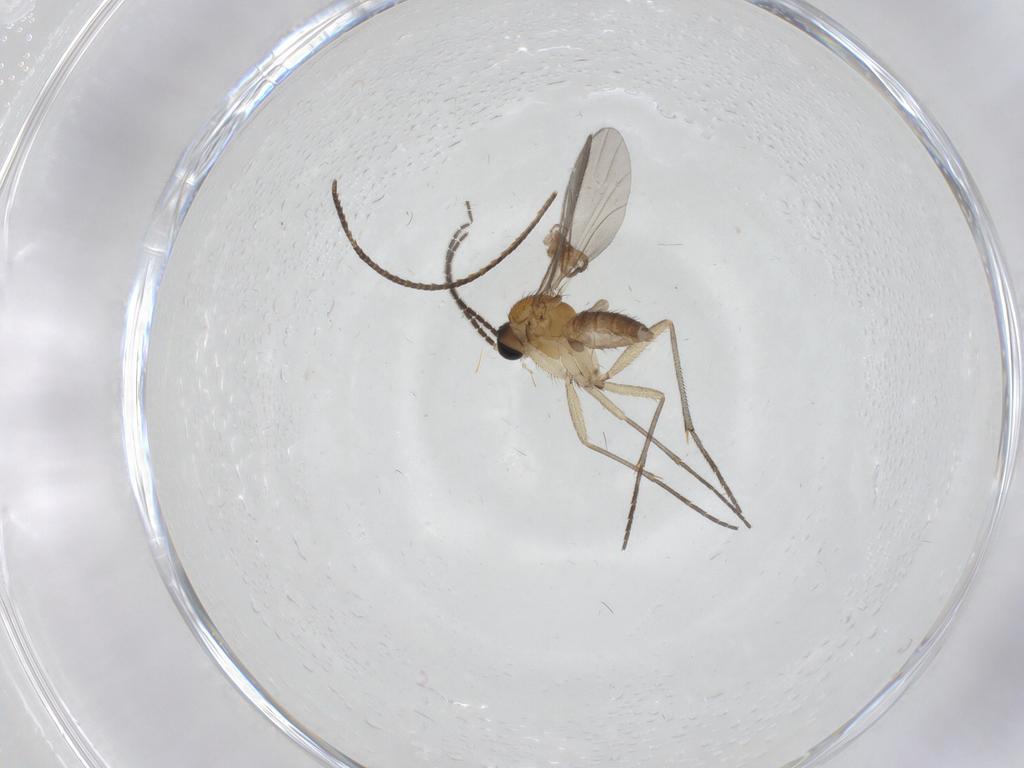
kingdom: Animalia
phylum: Arthropoda
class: Insecta
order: Diptera
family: Sciaridae
